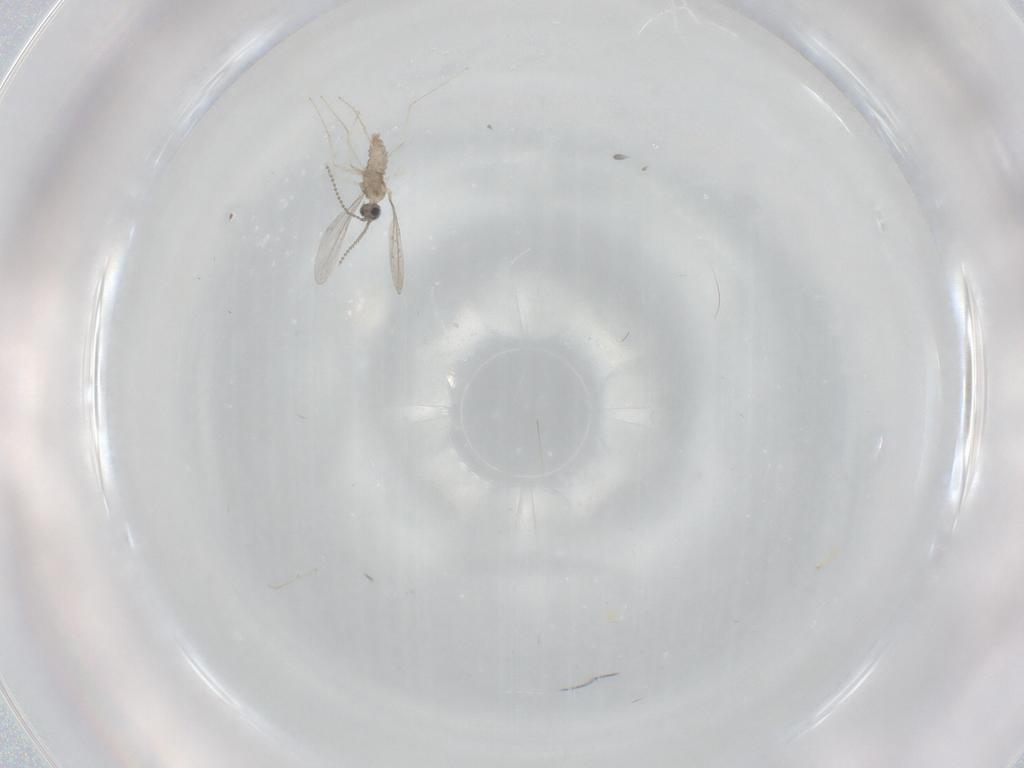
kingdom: Animalia
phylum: Arthropoda
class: Insecta
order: Diptera
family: Cecidomyiidae
